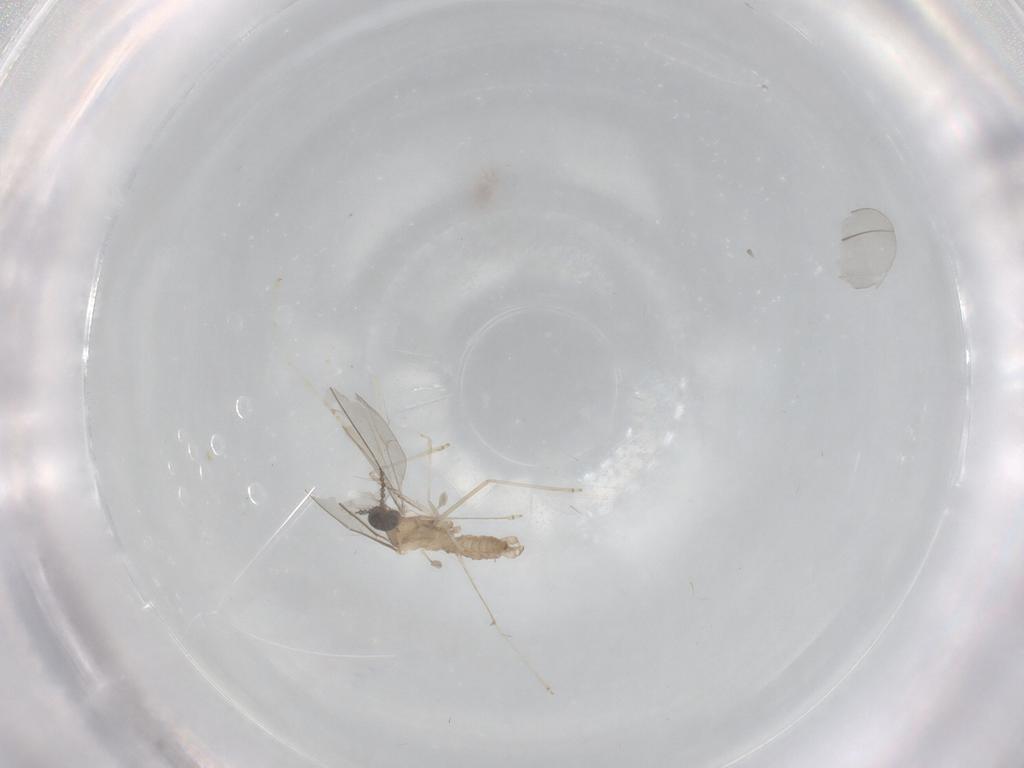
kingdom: Animalia
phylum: Arthropoda
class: Insecta
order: Diptera
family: Cecidomyiidae
